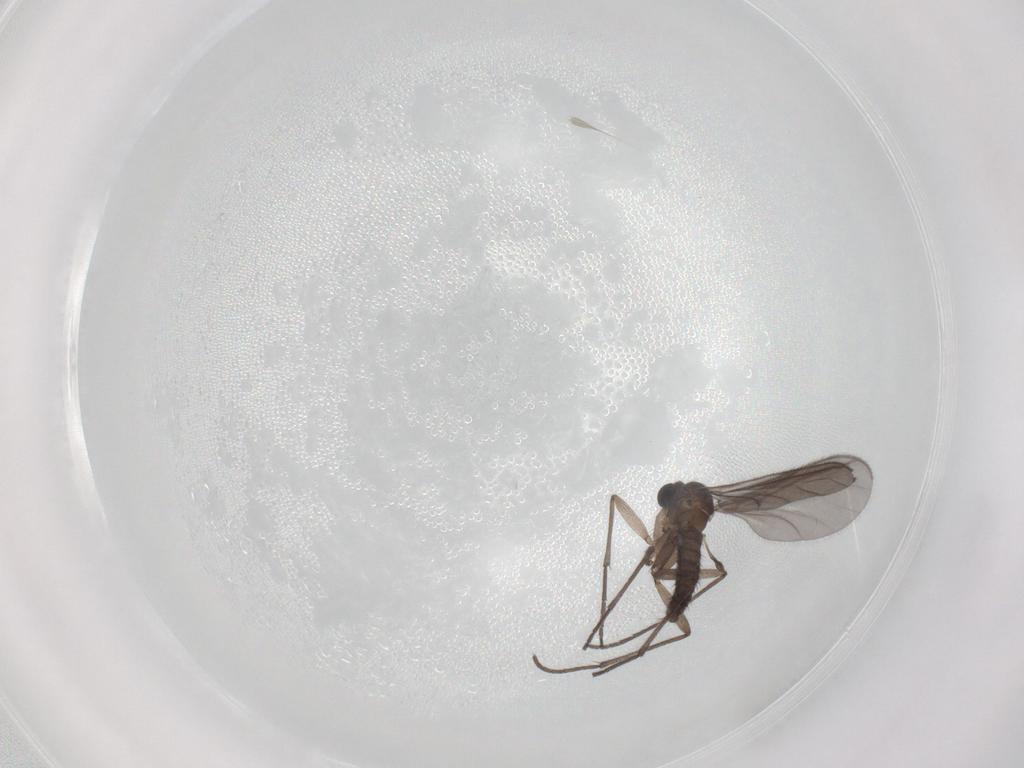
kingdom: Animalia
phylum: Arthropoda
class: Insecta
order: Diptera
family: Sciaridae
